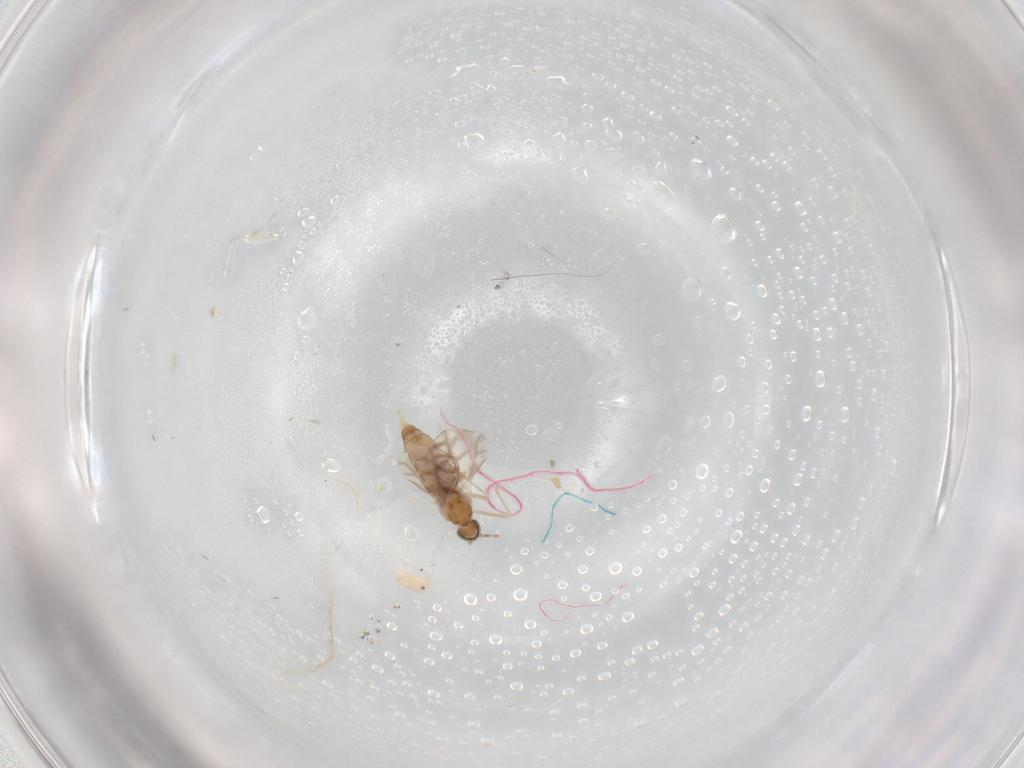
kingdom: Animalia
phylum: Arthropoda
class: Insecta
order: Diptera
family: Cecidomyiidae
